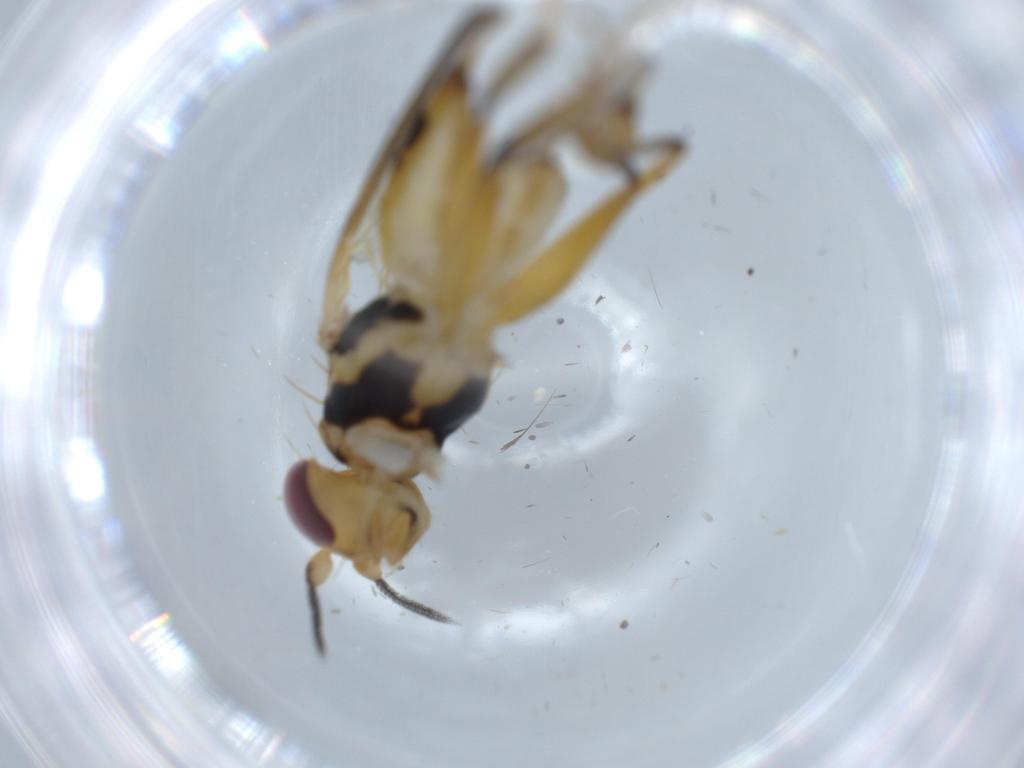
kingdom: Animalia
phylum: Arthropoda
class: Insecta
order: Diptera
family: Clusiidae
